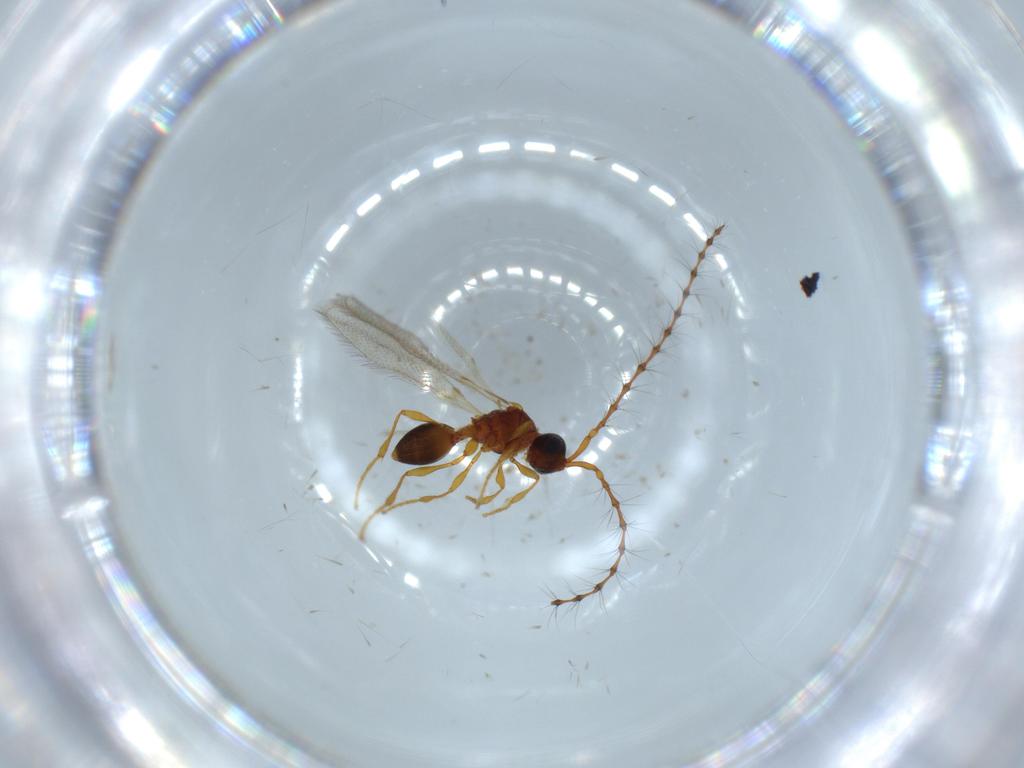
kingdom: Animalia
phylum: Arthropoda
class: Insecta
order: Hymenoptera
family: Bethylidae
